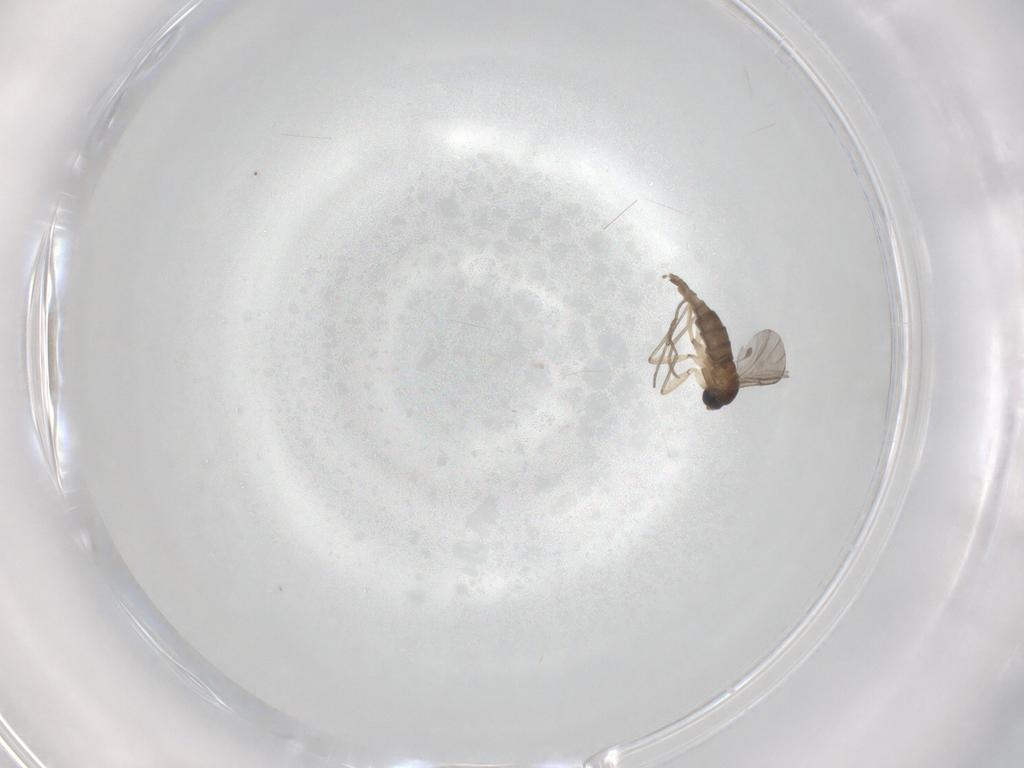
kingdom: Animalia
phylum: Arthropoda
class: Insecta
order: Diptera
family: Sciaridae
